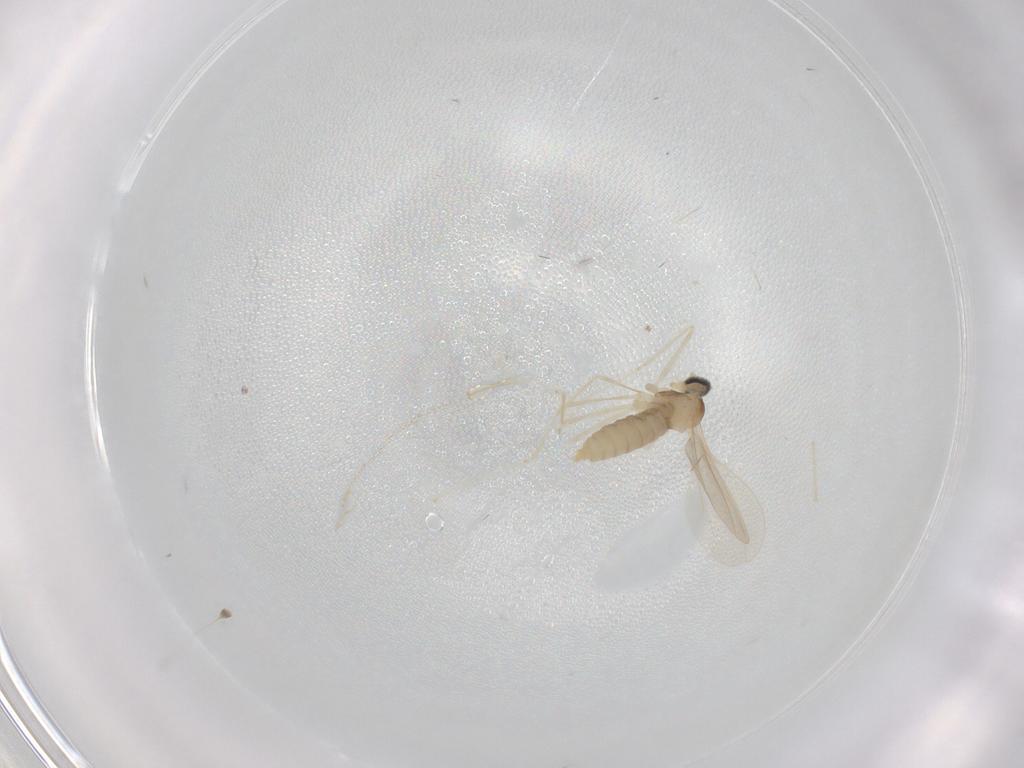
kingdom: Animalia
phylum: Arthropoda
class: Insecta
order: Diptera
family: Cecidomyiidae
